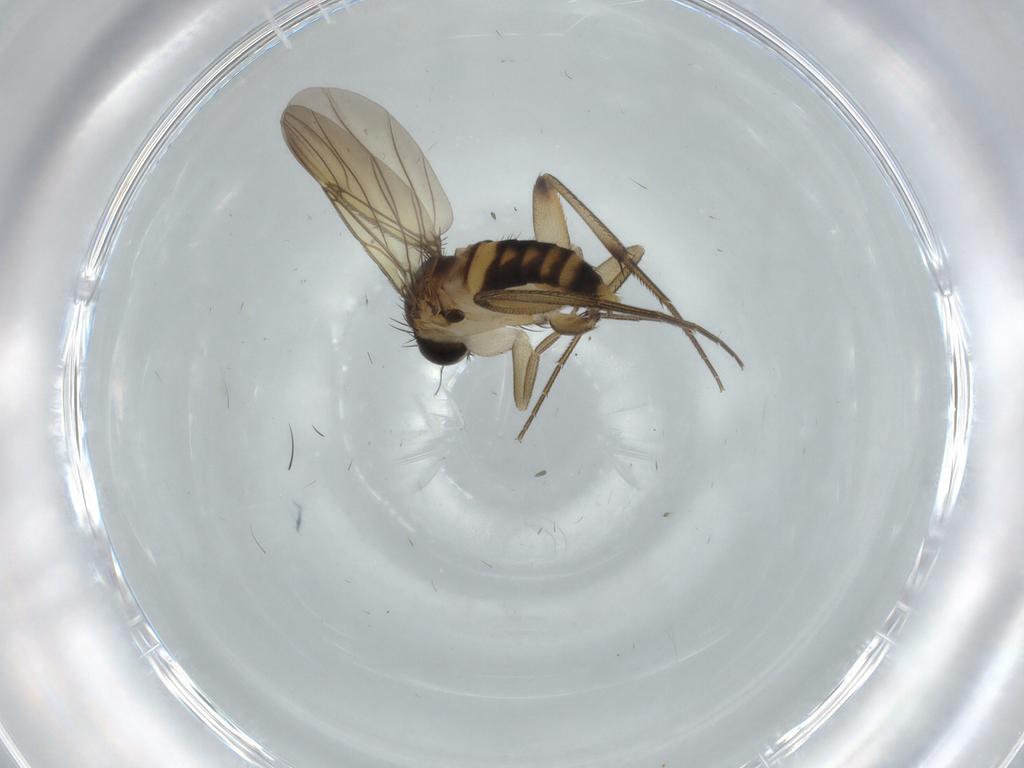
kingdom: Animalia
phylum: Arthropoda
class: Insecta
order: Diptera
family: Cecidomyiidae
